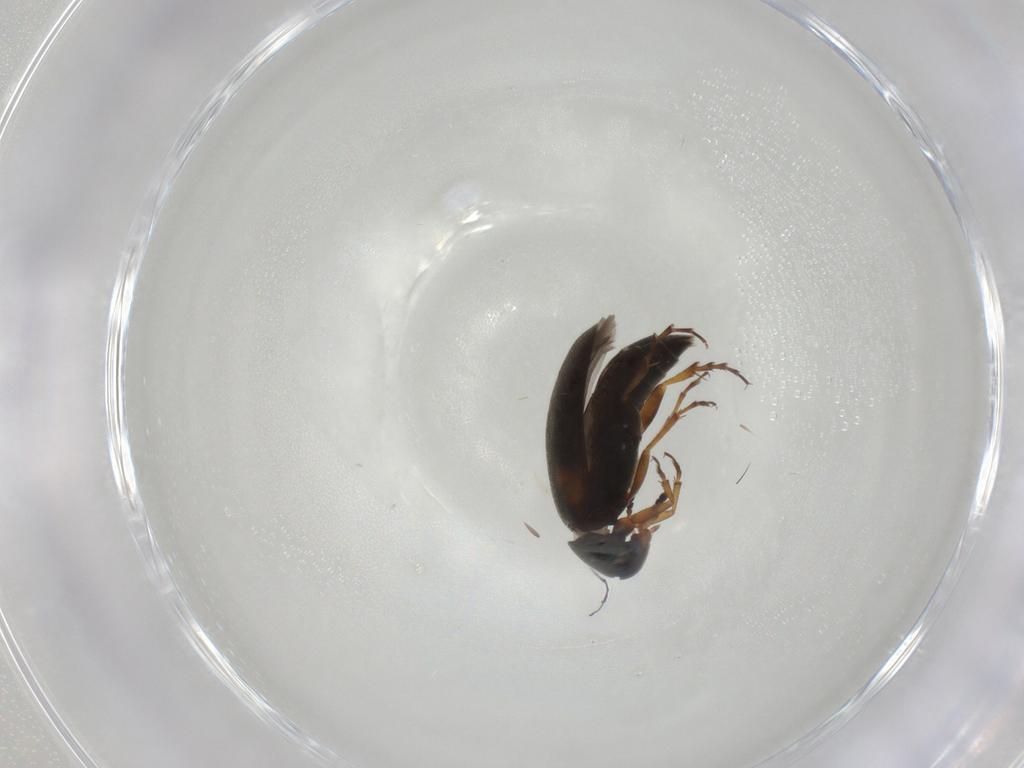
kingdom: Animalia
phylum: Arthropoda
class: Insecta
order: Coleoptera
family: Scraptiidae
